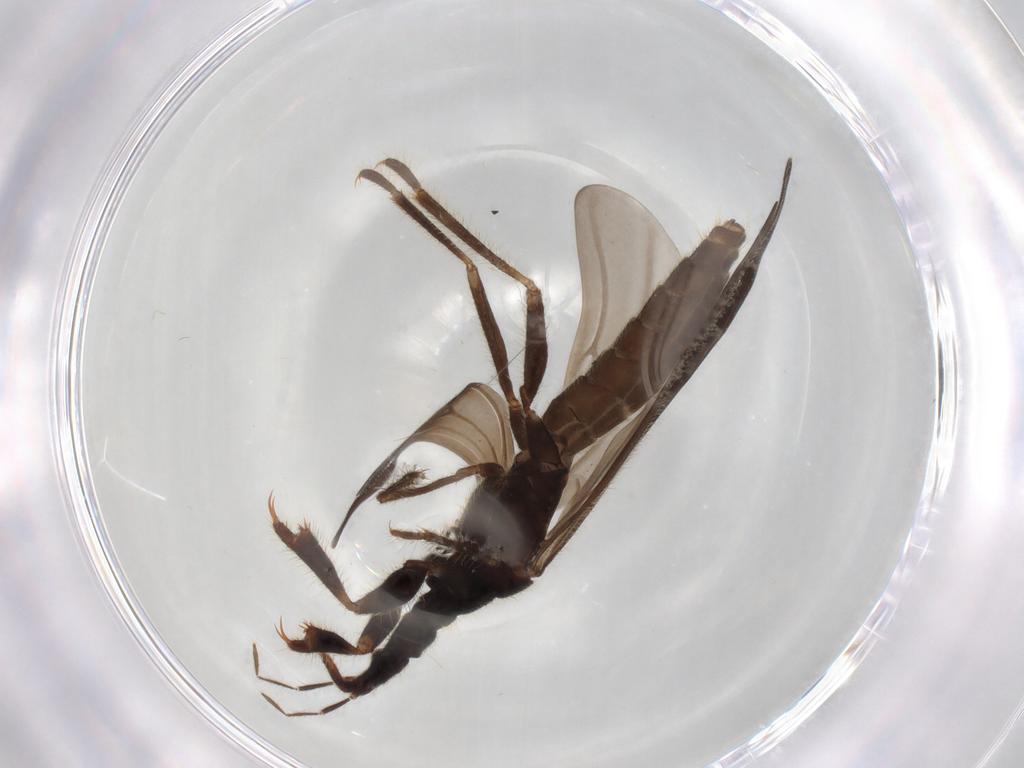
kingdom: Animalia
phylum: Arthropoda
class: Insecta
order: Hemiptera
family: Enicocephalidae
